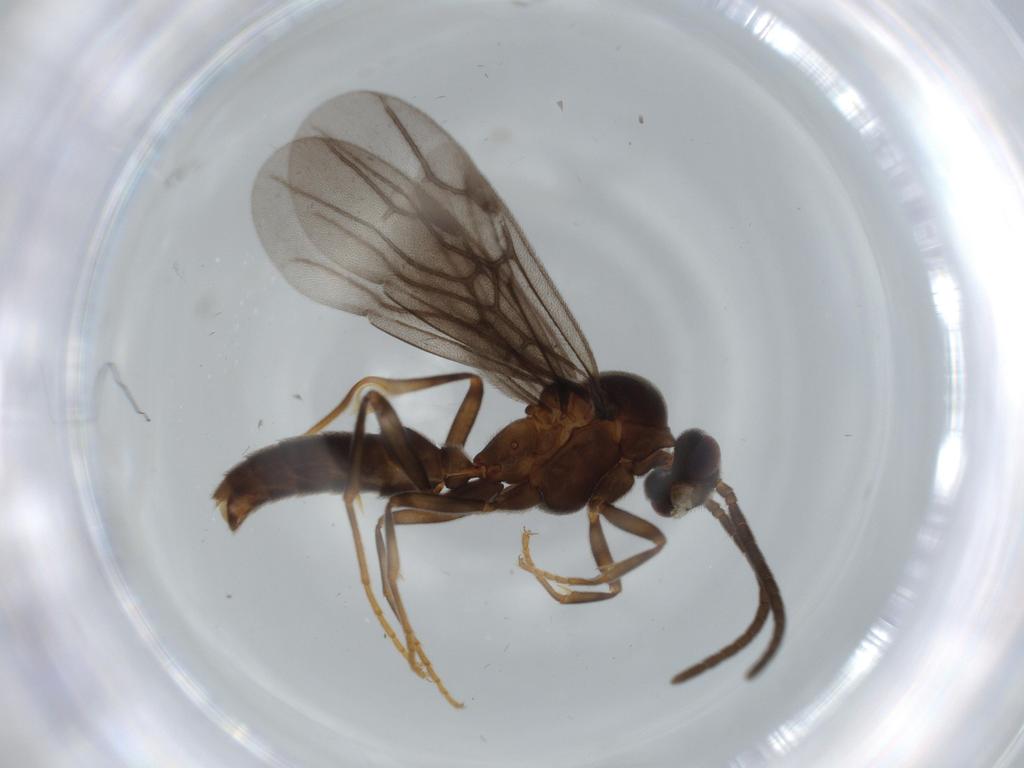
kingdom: Animalia
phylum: Arthropoda
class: Insecta
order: Hymenoptera
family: Formicidae
